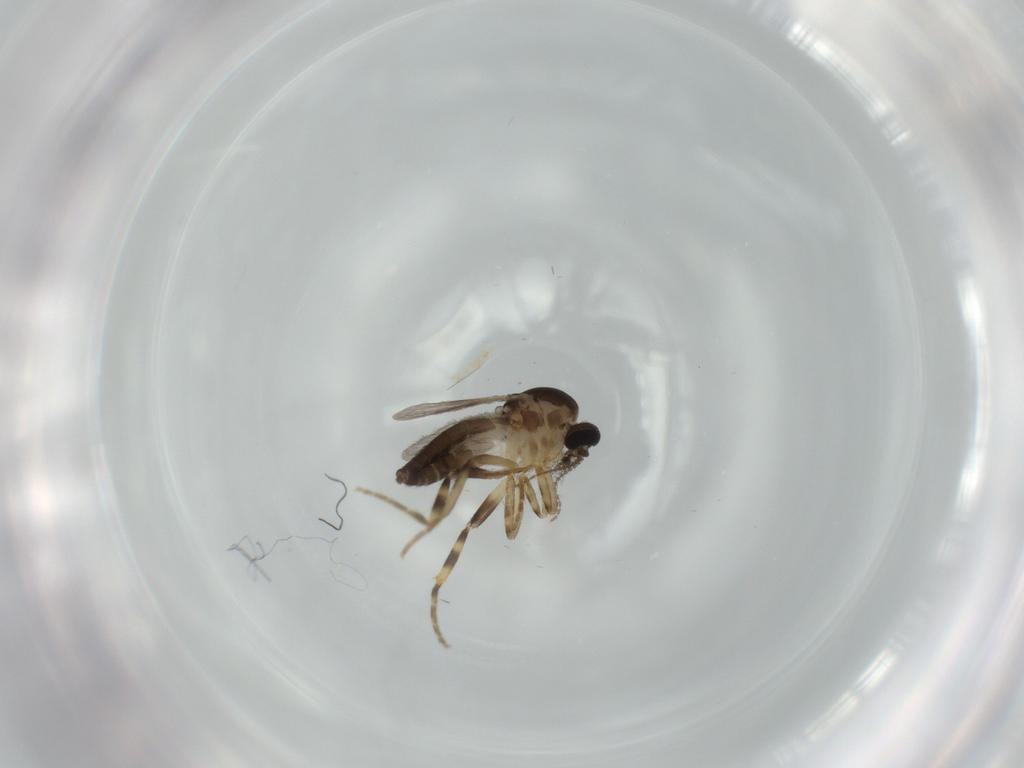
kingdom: Animalia
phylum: Arthropoda
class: Insecta
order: Diptera
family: Ceratopogonidae
